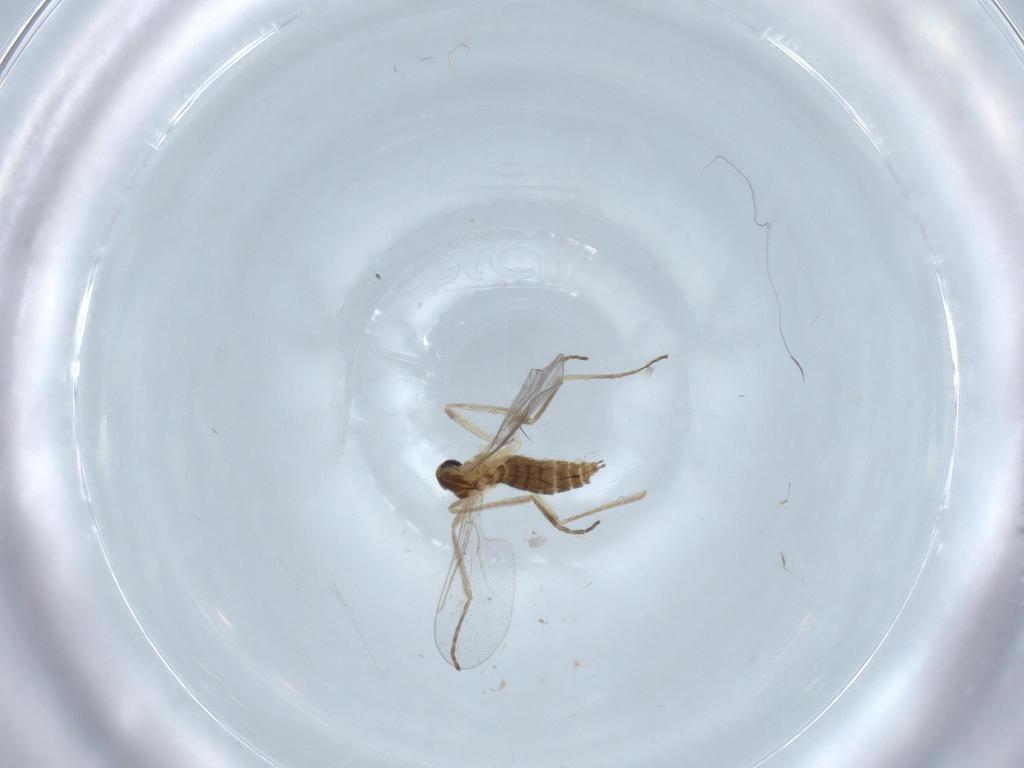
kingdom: Animalia
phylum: Arthropoda
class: Insecta
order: Diptera
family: Cecidomyiidae
